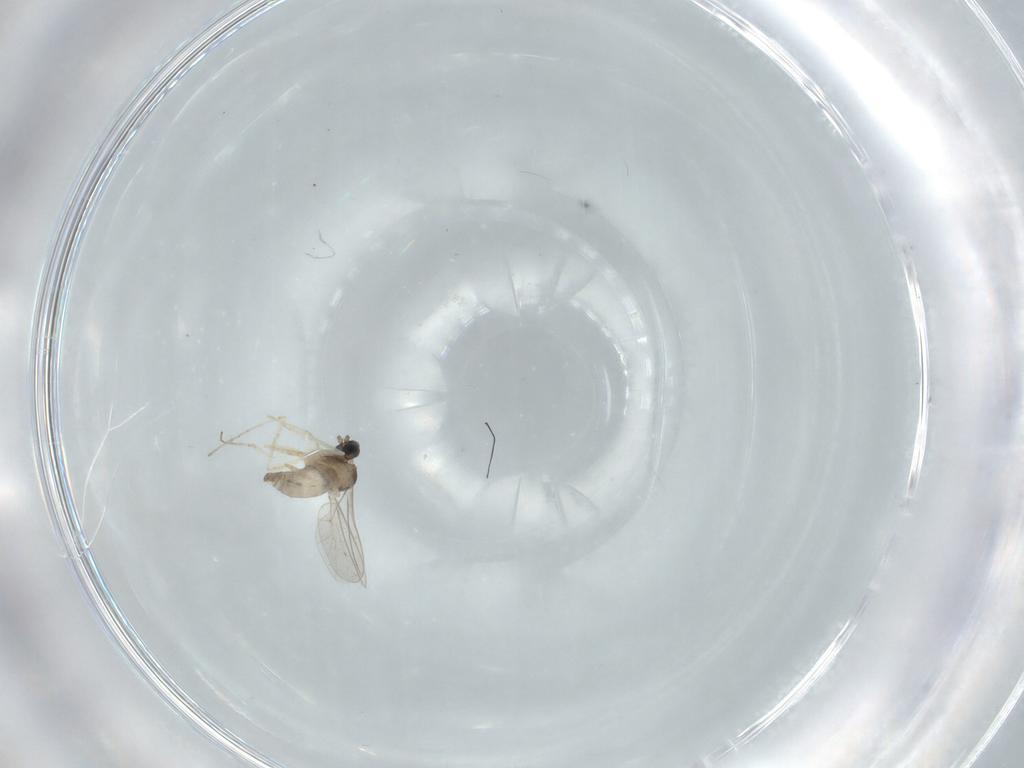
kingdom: Animalia
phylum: Arthropoda
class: Insecta
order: Diptera
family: Cecidomyiidae
